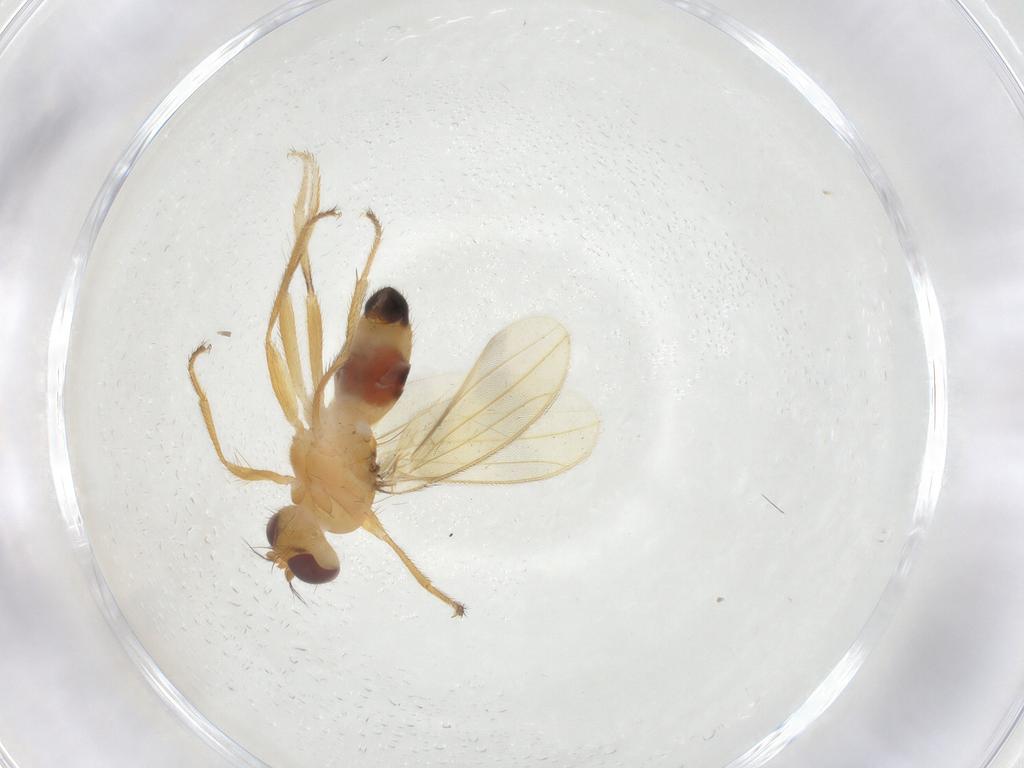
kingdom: Animalia
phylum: Arthropoda
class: Insecta
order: Diptera
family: Periscelididae
